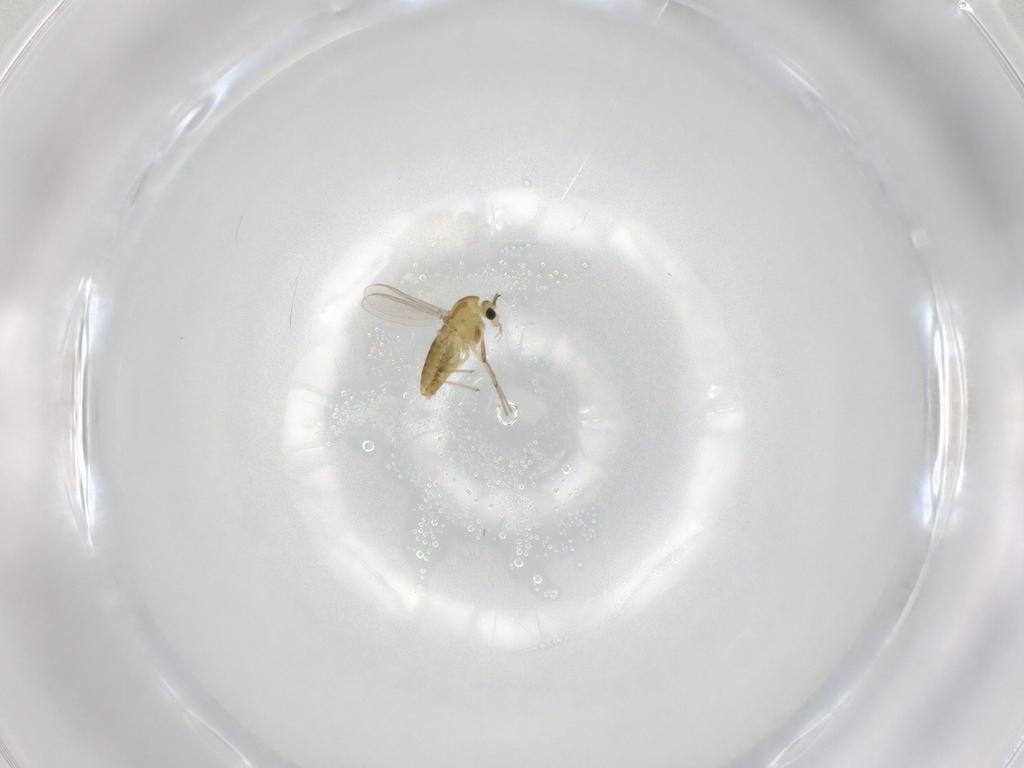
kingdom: Animalia
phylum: Arthropoda
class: Insecta
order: Diptera
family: Chironomidae
